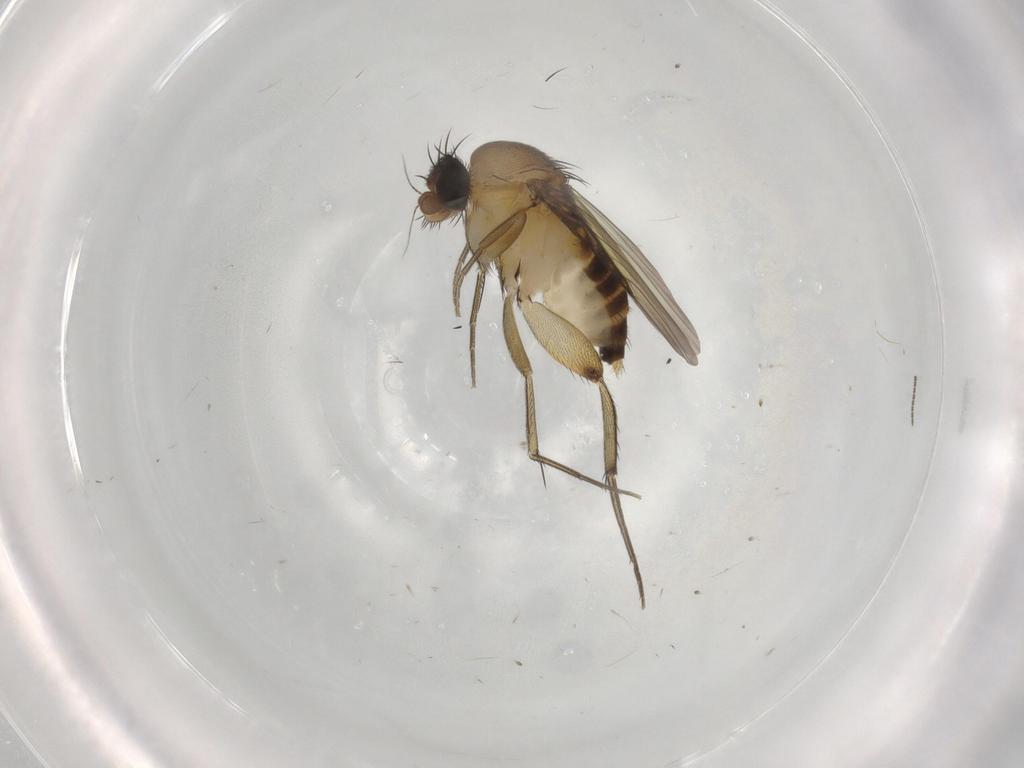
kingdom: Animalia
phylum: Arthropoda
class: Insecta
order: Diptera
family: Phoridae
